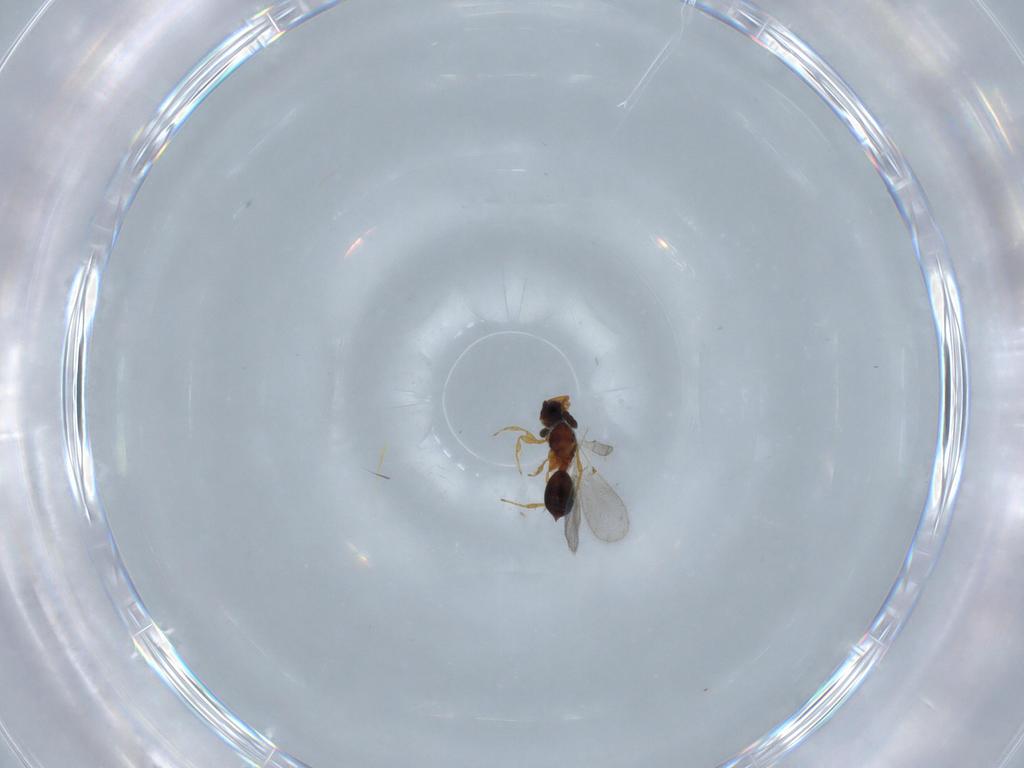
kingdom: Animalia
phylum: Arthropoda
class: Insecta
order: Hymenoptera
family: Diapriidae
